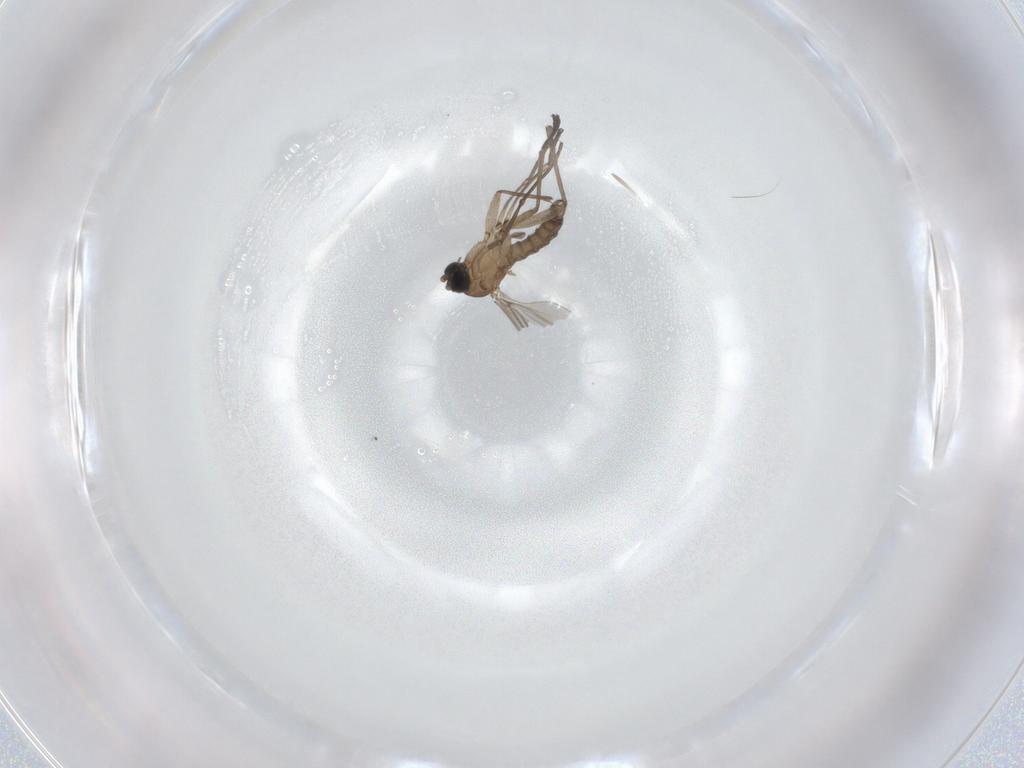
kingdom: Animalia
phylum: Arthropoda
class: Insecta
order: Diptera
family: Sciaridae
